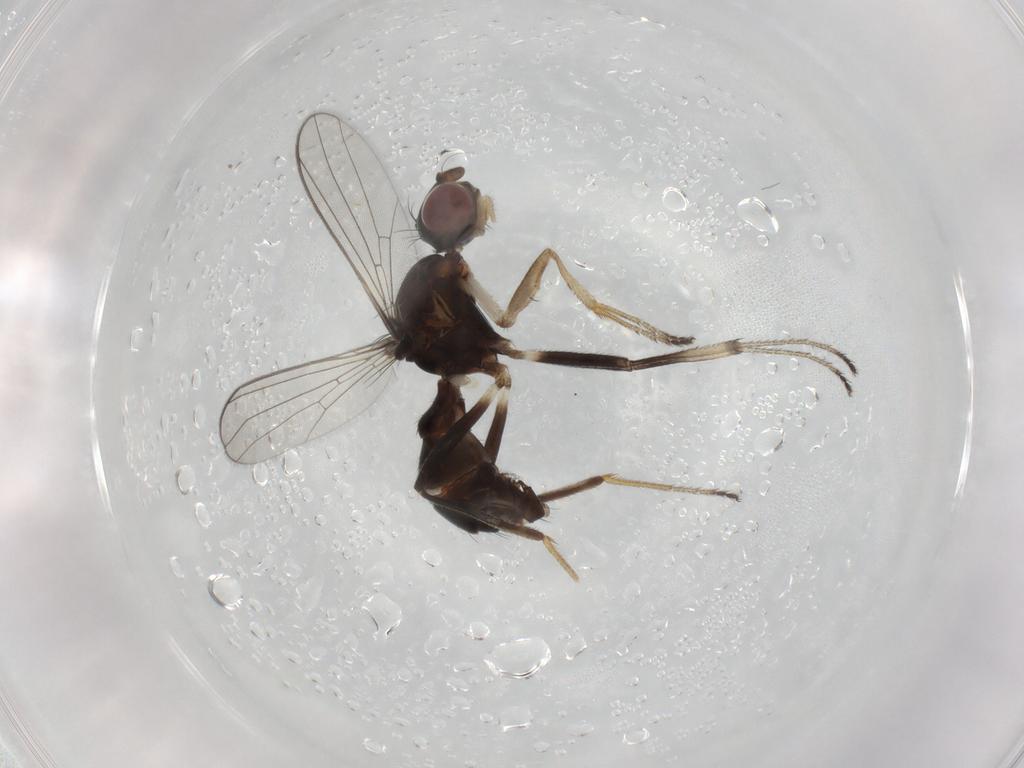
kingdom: Animalia
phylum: Arthropoda
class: Insecta
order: Diptera
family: Sepsidae
